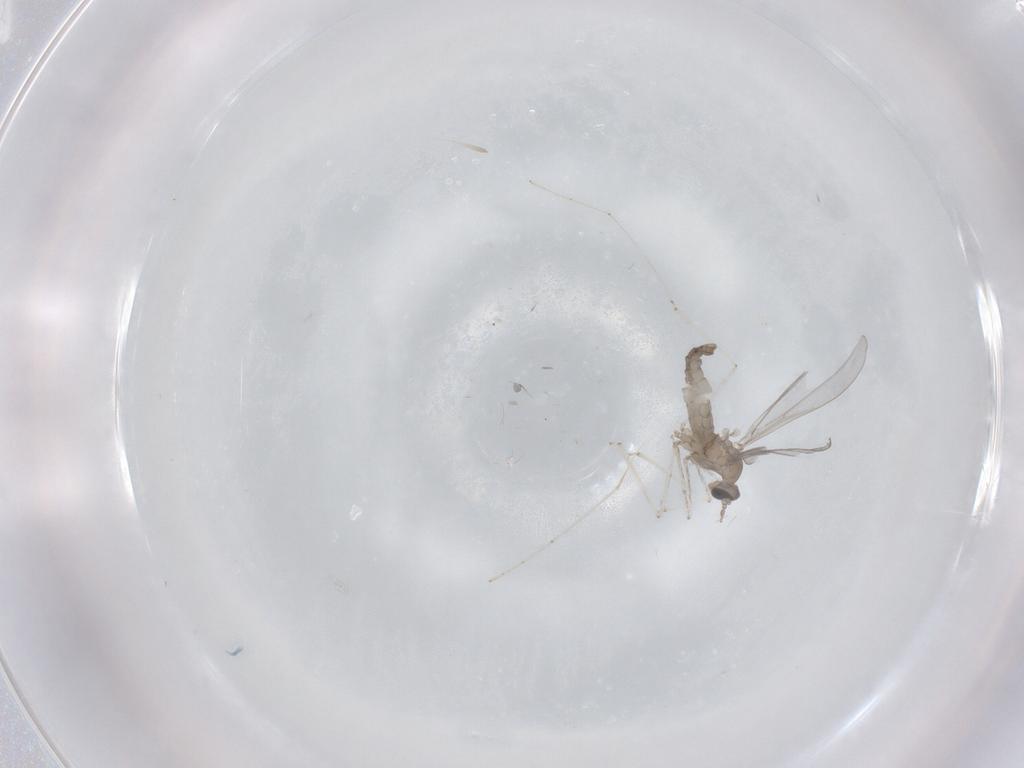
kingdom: Animalia
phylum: Arthropoda
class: Insecta
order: Diptera
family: Cecidomyiidae
